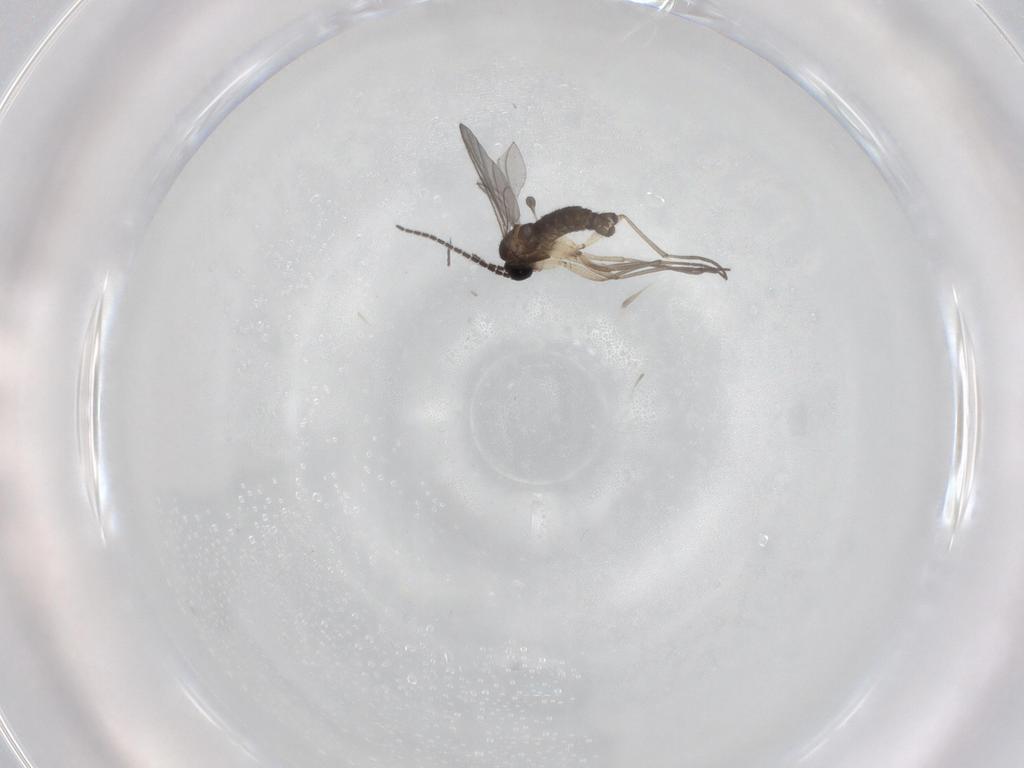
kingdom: Animalia
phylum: Arthropoda
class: Insecta
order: Diptera
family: Sciaridae
